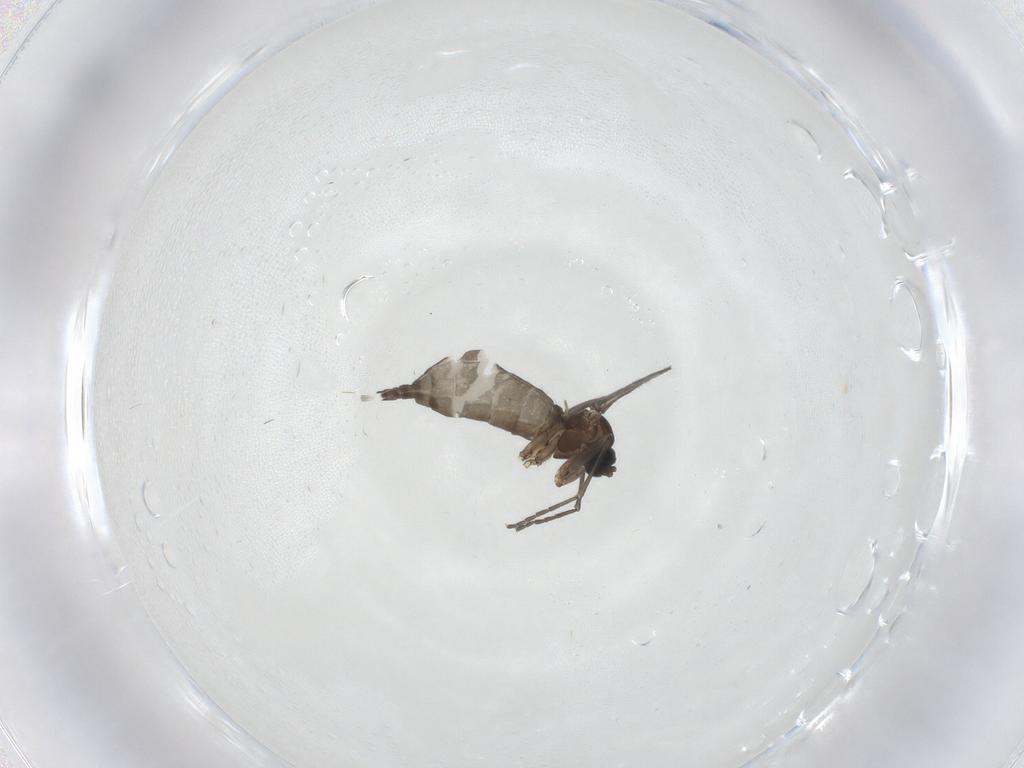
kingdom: Animalia
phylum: Arthropoda
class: Insecta
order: Diptera
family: Sciaridae
